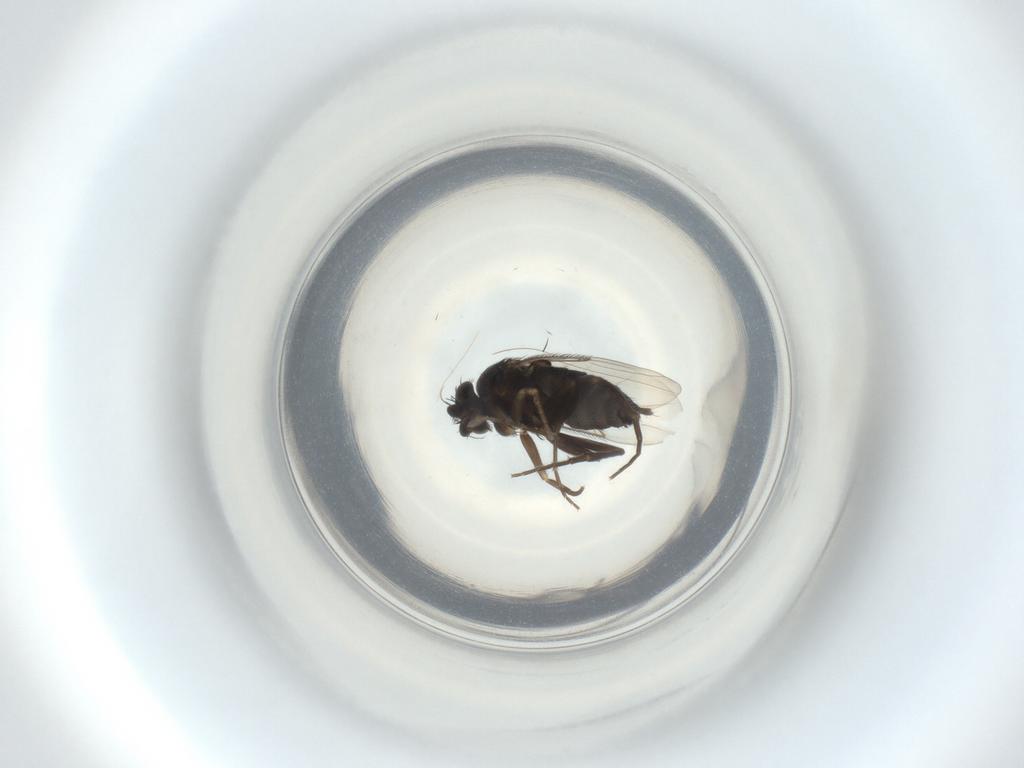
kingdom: Animalia
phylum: Arthropoda
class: Insecta
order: Diptera
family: Phoridae
